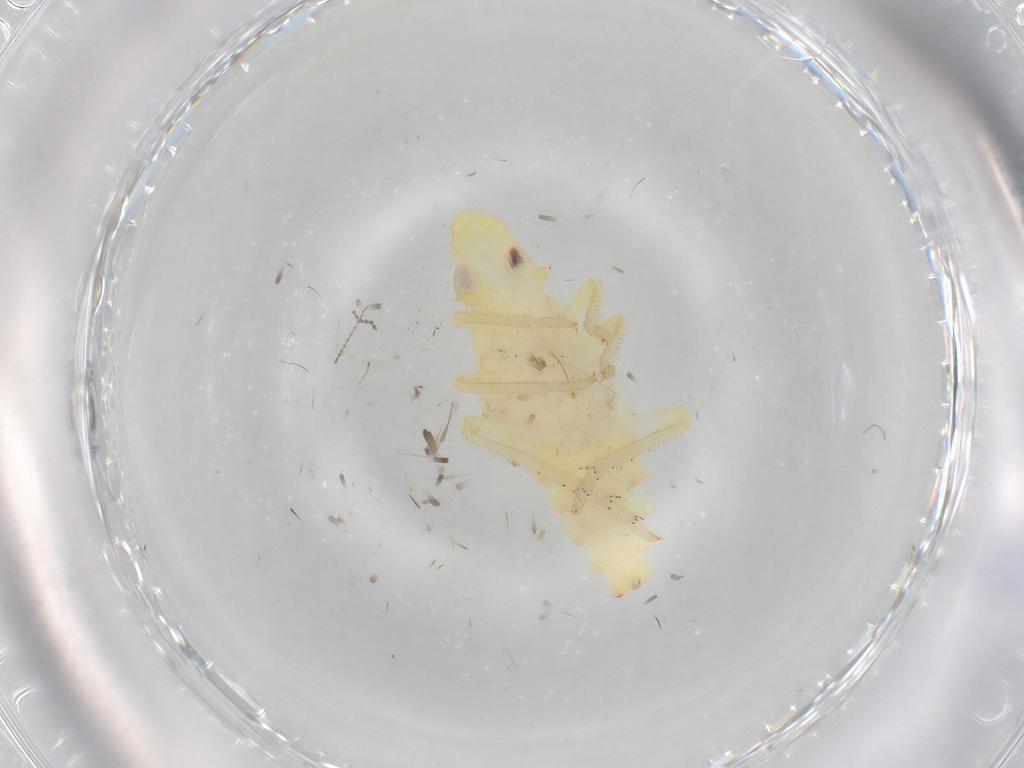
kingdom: Animalia
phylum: Arthropoda
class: Insecta
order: Hemiptera
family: Tropiduchidae
